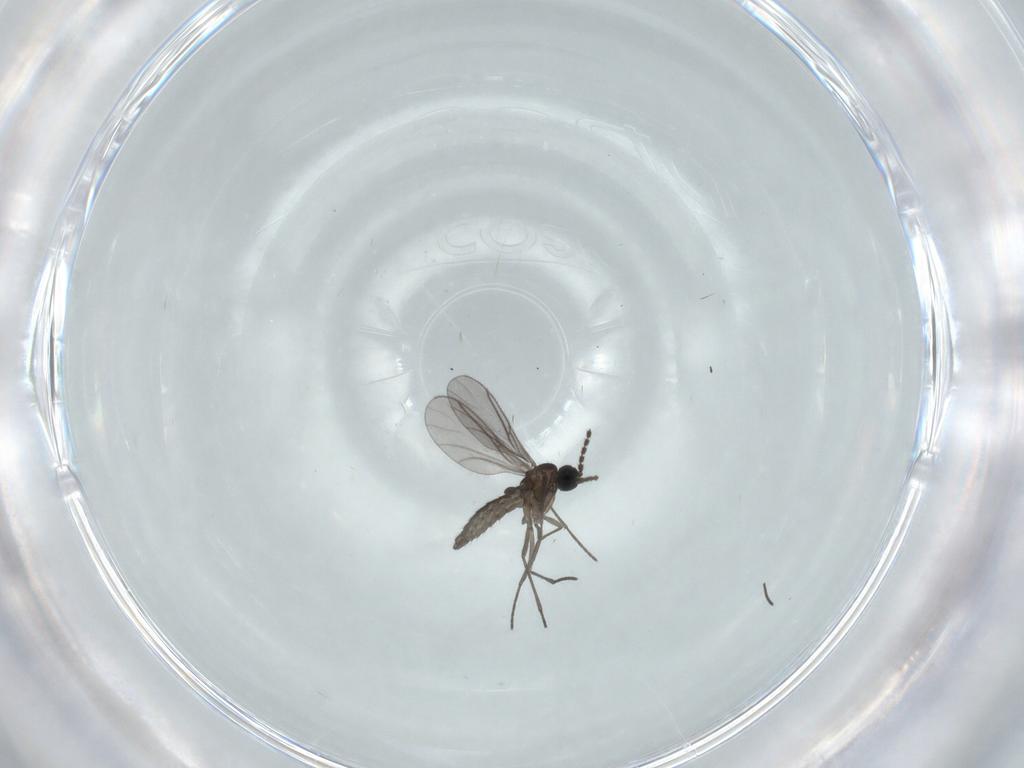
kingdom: Animalia
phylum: Arthropoda
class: Insecta
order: Diptera
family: Sciaridae
